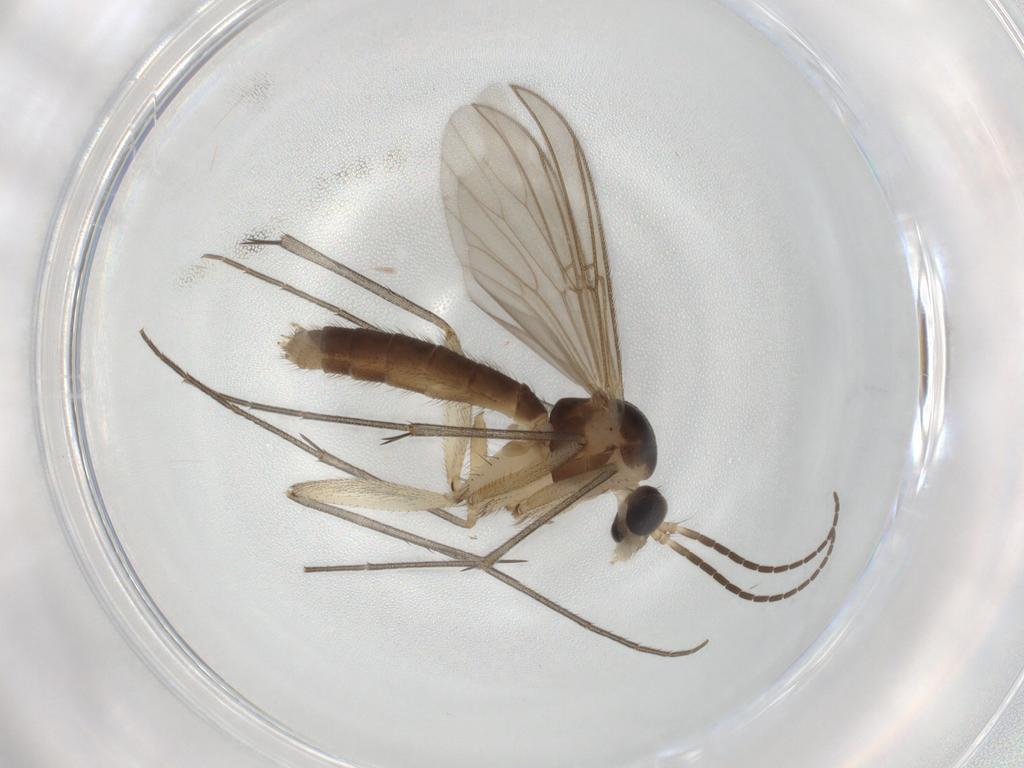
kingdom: Animalia
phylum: Arthropoda
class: Insecta
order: Diptera
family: Mycetophilidae
